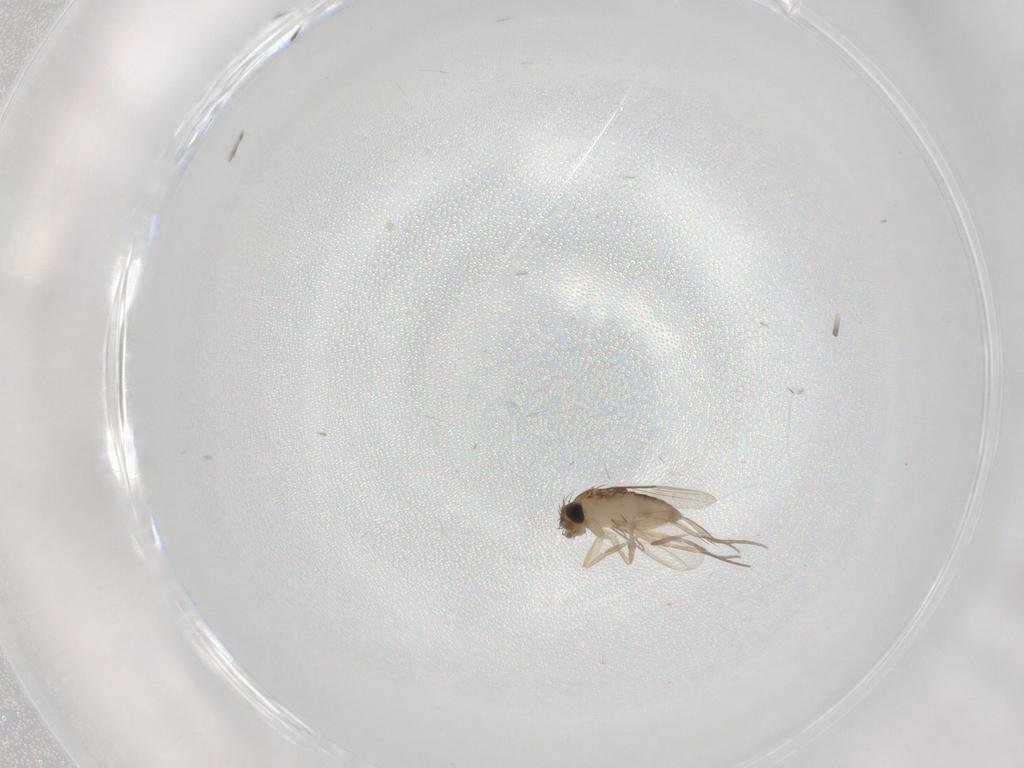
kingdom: Animalia
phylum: Arthropoda
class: Insecta
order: Diptera
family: Phoridae
